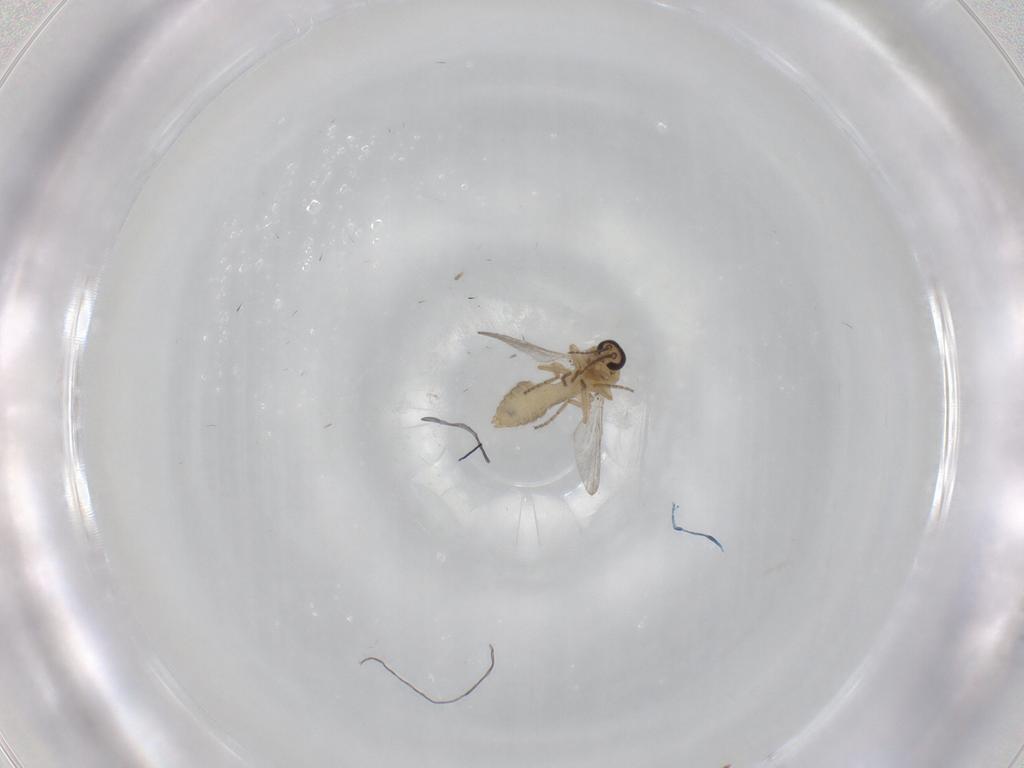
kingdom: Animalia
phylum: Arthropoda
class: Insecta
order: Diptera
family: Ceratopogonidae
